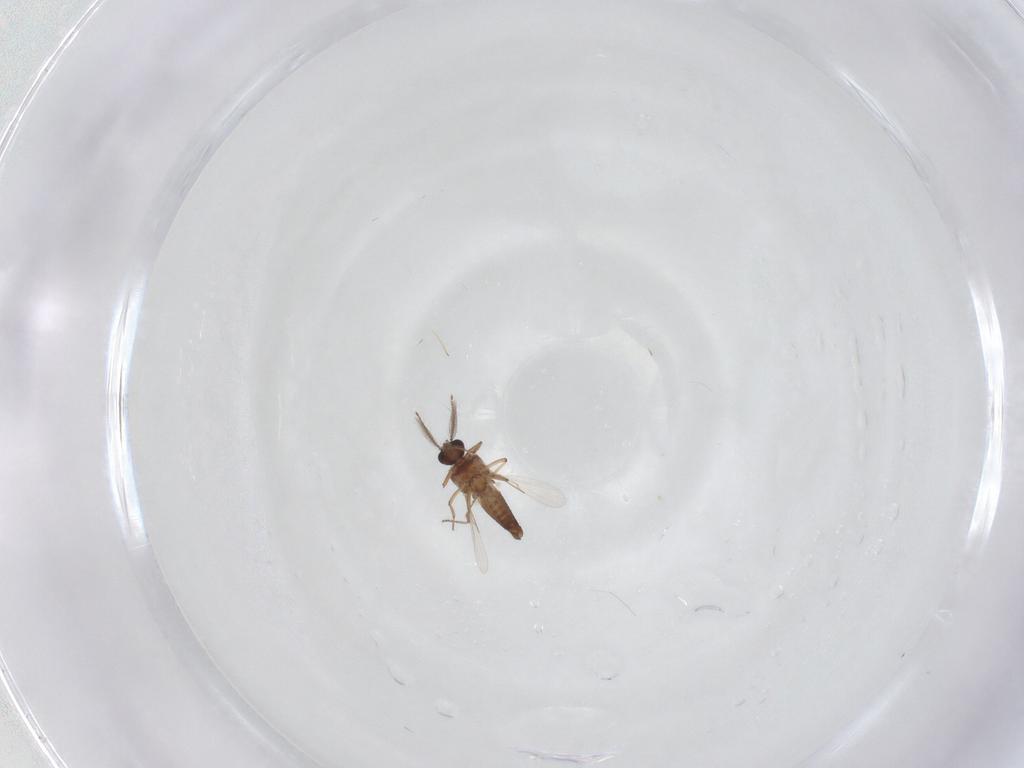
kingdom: Animalia
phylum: Arthropoda
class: Insecta
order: Diptera
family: Ceratopogonidae
